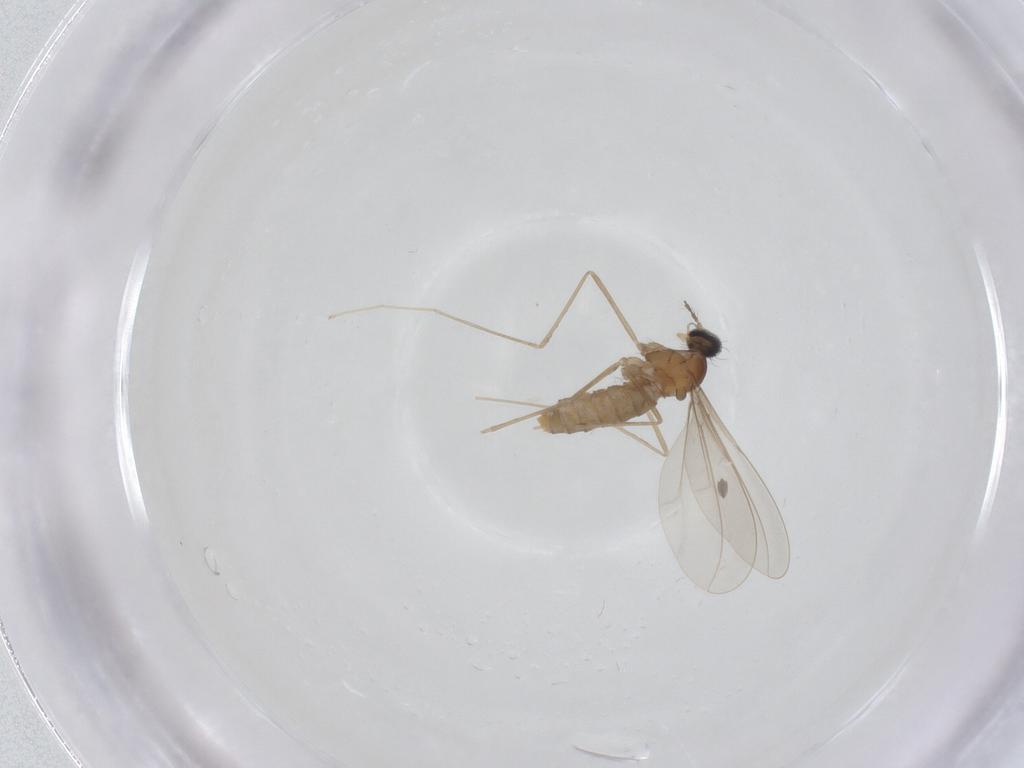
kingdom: Animalia
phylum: Arthropoda
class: Insecta
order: Diptera
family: Cecidomyiidae
